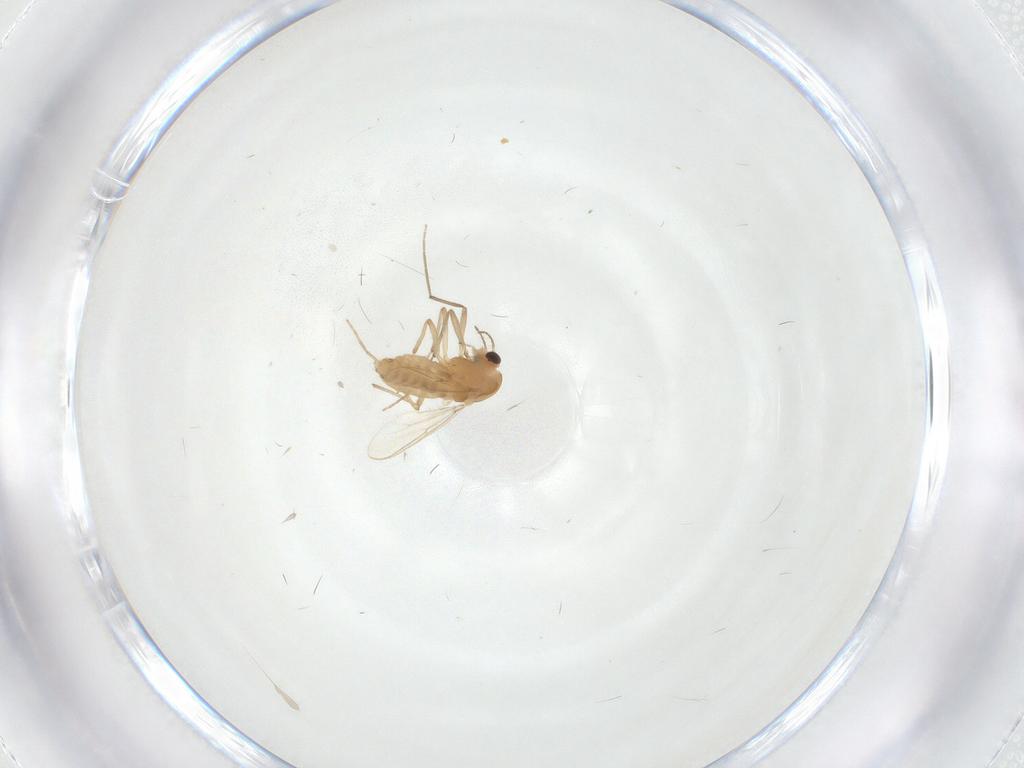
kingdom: Animalia
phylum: Arthropoda
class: Insecta
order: Diptera
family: Chironomidae
